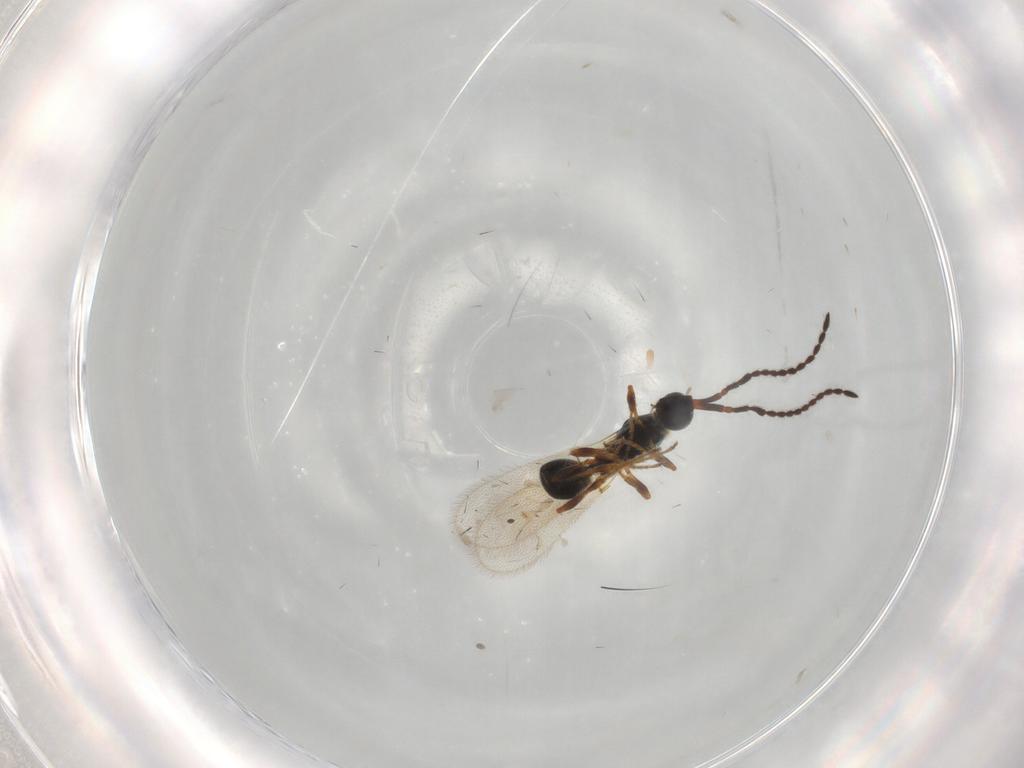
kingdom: Animalia
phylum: Arthropoda
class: Insecta
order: Hymenoptera
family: Diapriidae
